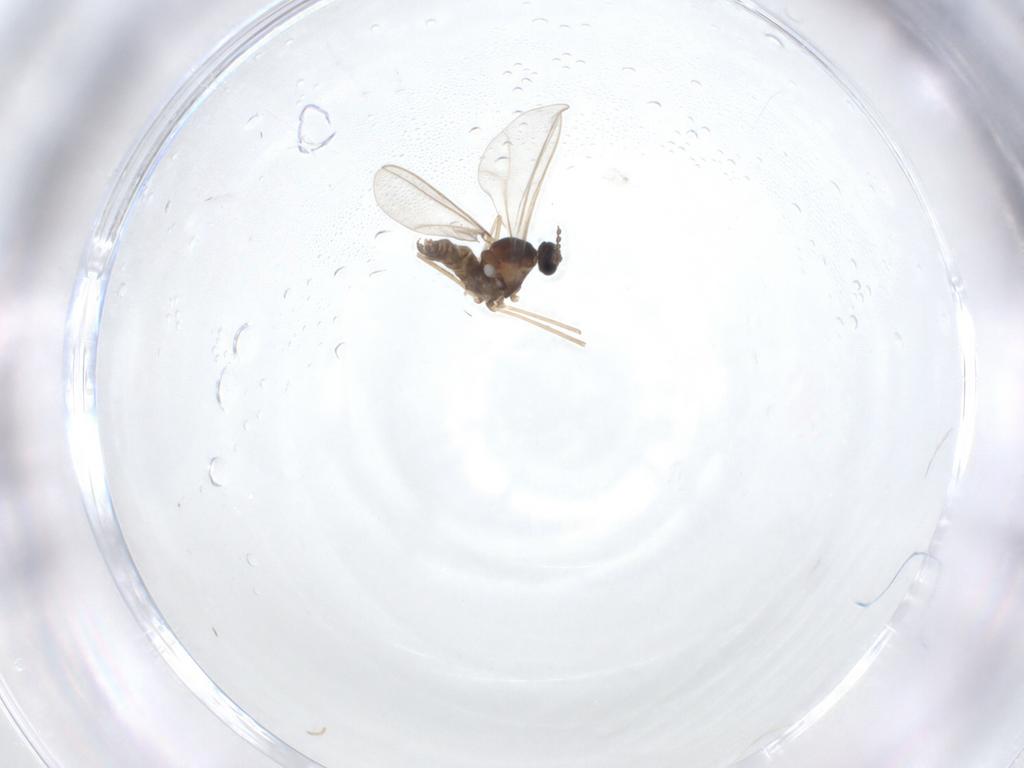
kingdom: Animalia
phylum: Arthropoda
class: Insecta
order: Diptera
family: Cecidomyiidae
